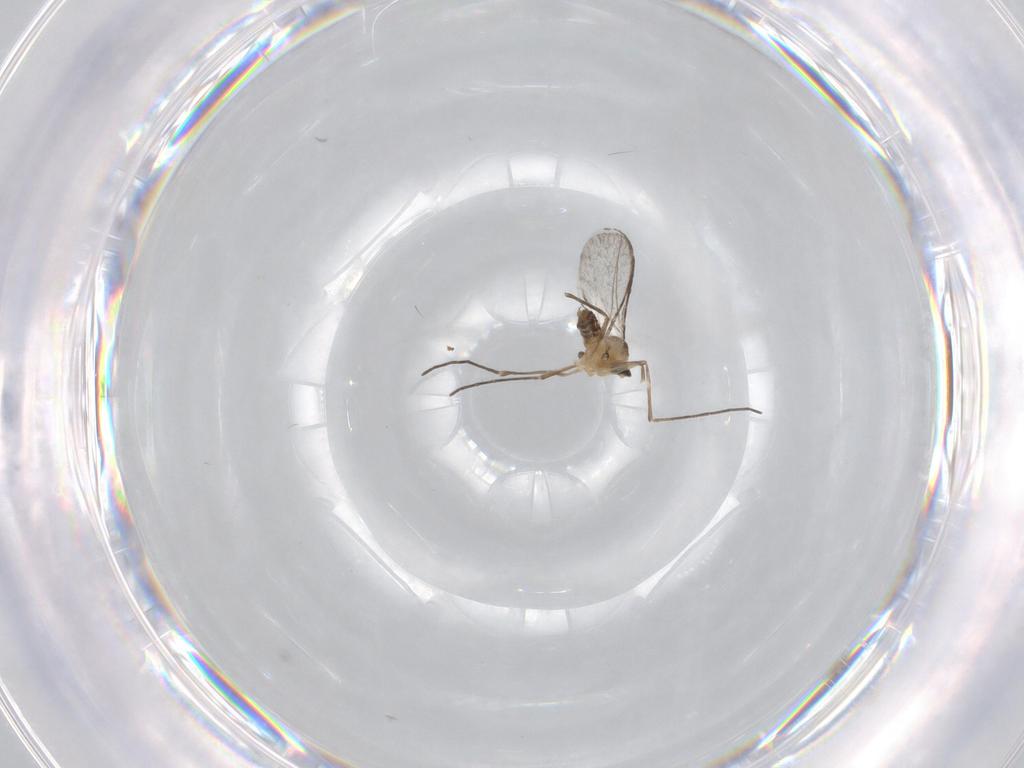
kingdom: Animalia
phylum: Arthropoda
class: Insecta
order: Diptera
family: Cecidomyiidae
